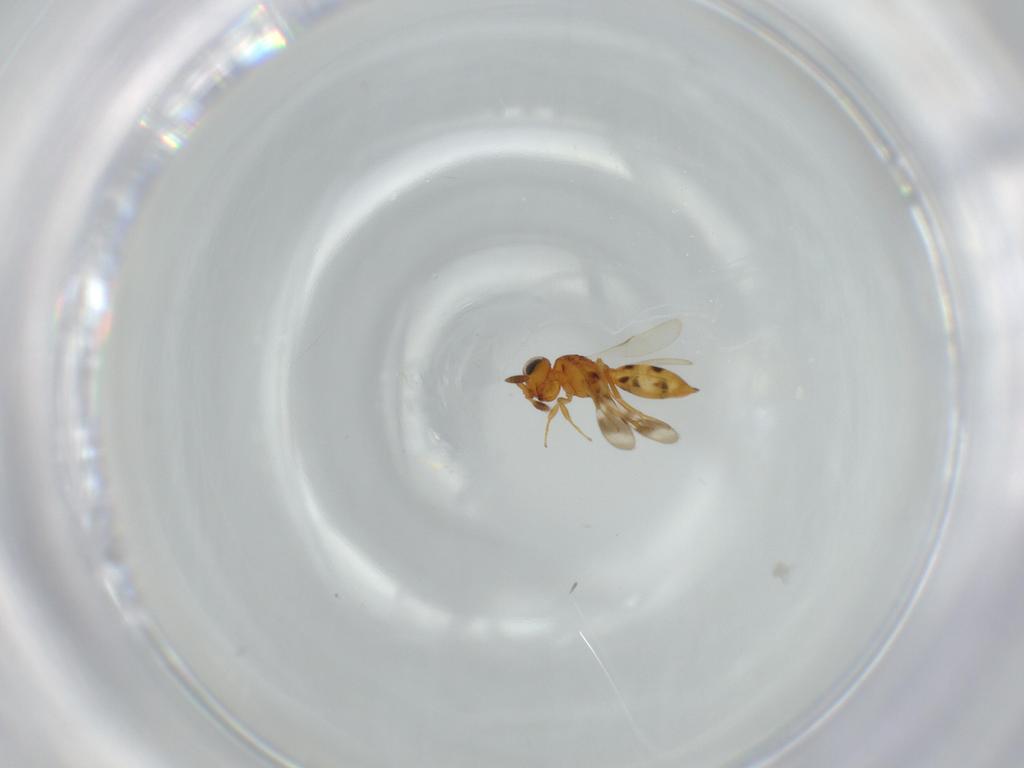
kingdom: Animalia
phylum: Arthropoda
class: Insecta
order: Hymenoptera
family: Scelionidae
